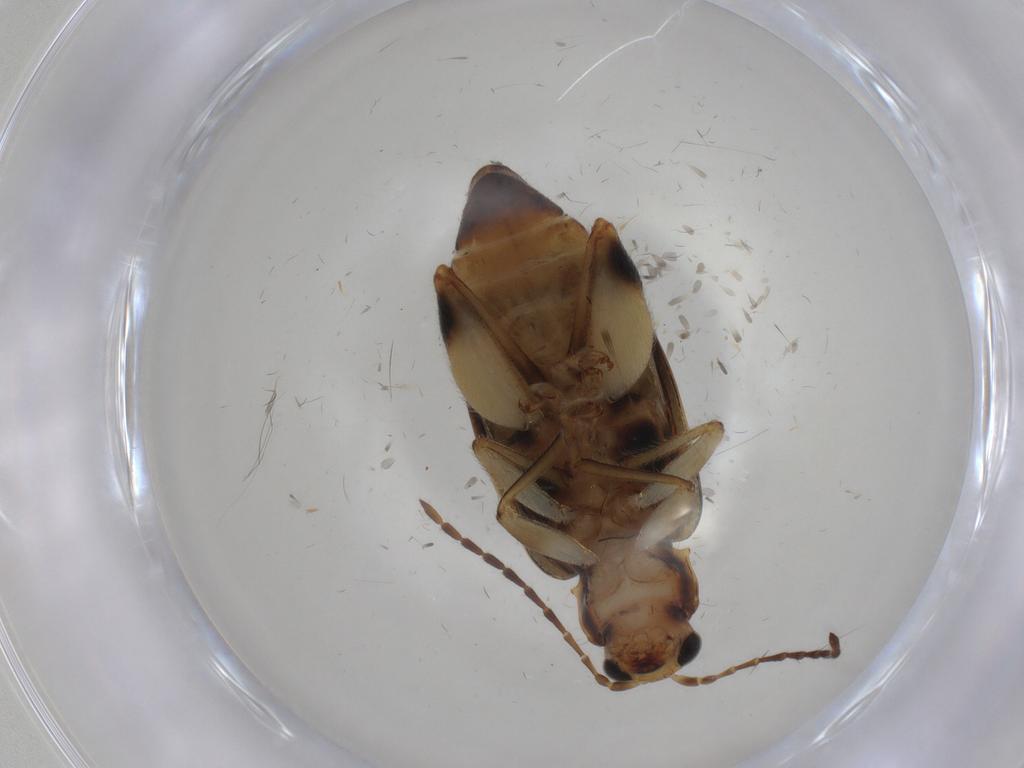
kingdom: Animalia
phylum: Arthropoda
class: Insecta
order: Coleoptera
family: Chrysomelidae
